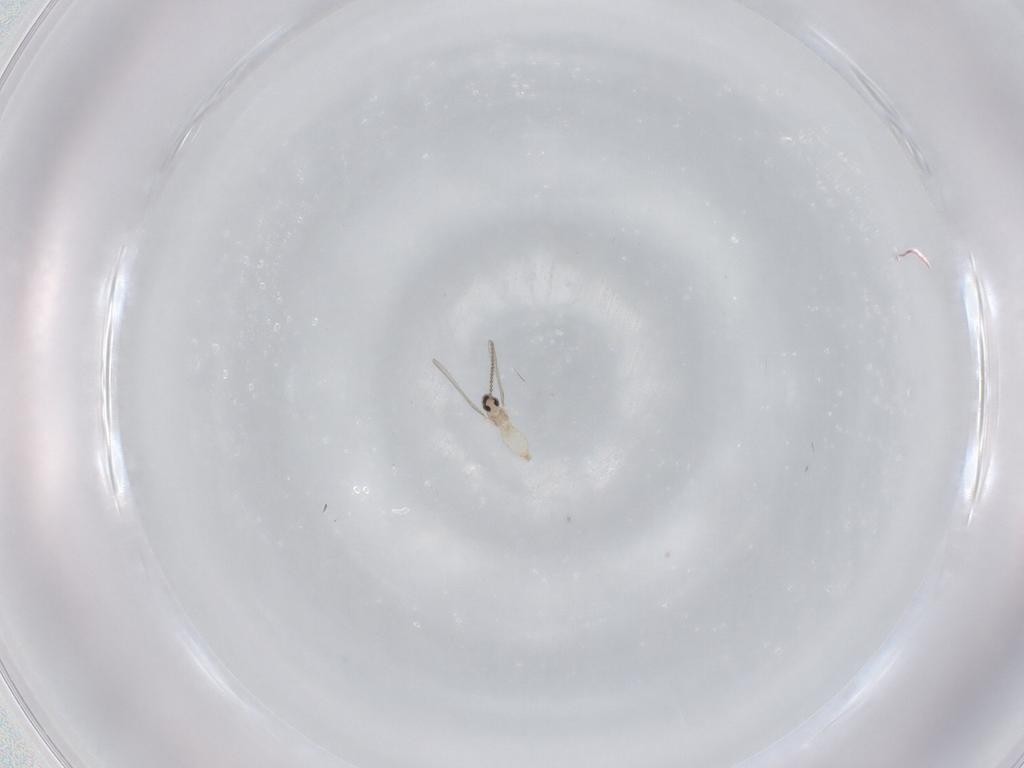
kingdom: Animalia
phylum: Arthropoda
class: Insecta
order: Diptera
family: Cecidomyiidae
